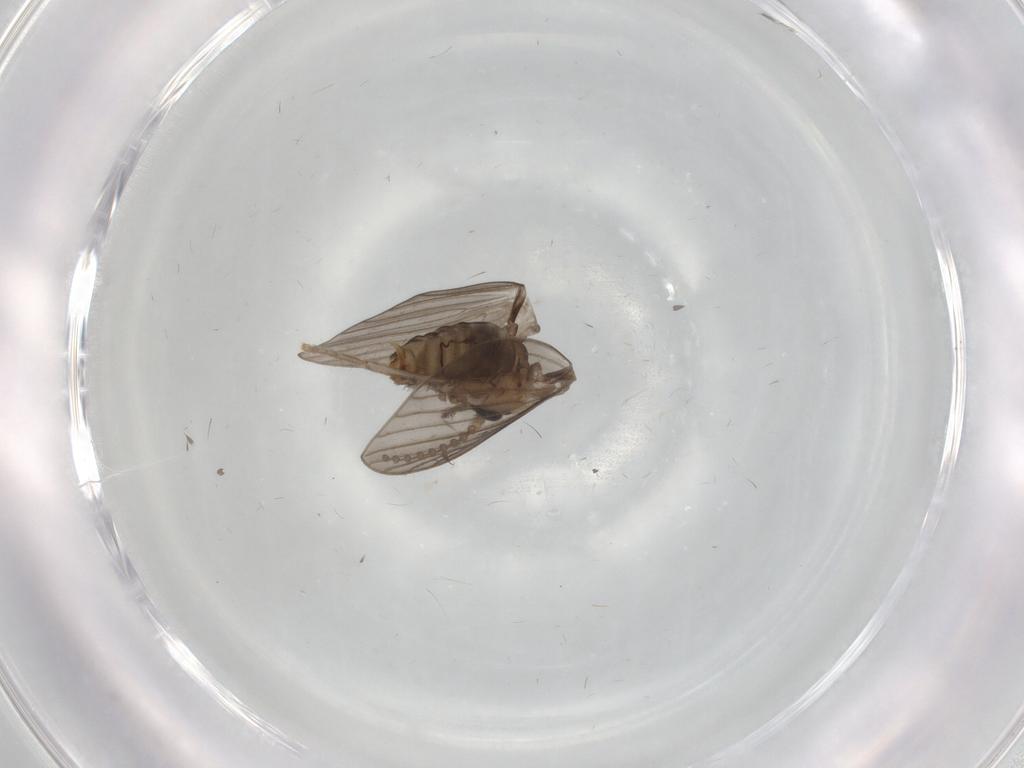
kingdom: Animalia
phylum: Arthropoda
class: Insecta
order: Diptera
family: Psychodidae
